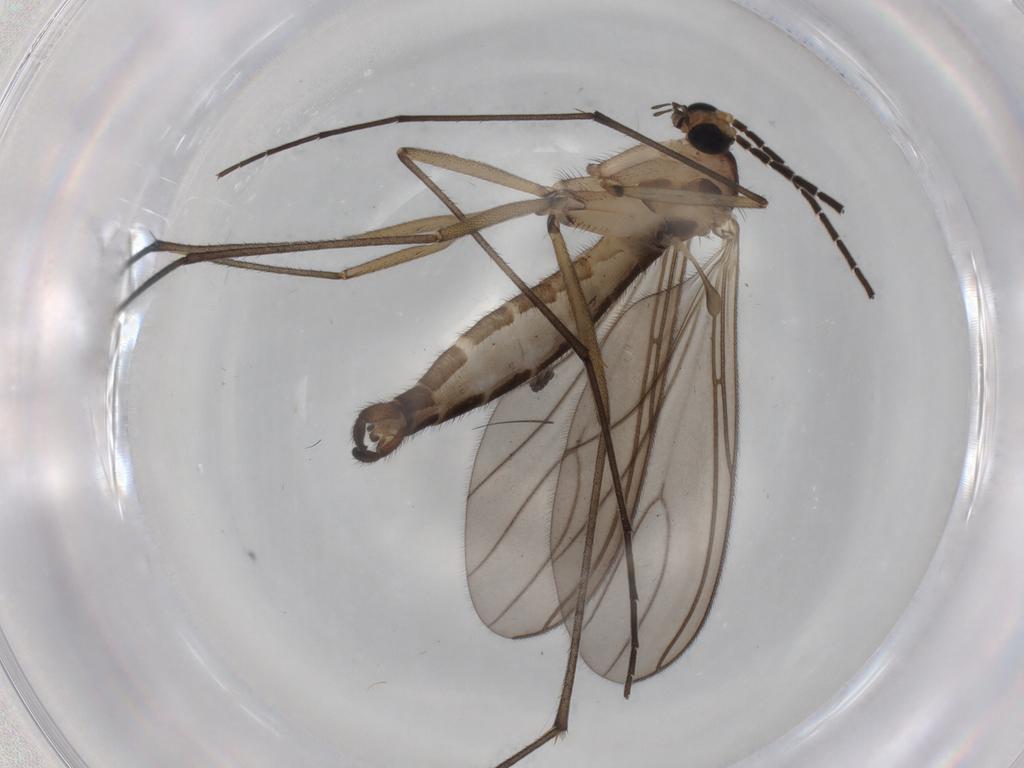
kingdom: Animalia
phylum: Arthropoda
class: Insecta
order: Diptera
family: Sciaridae
